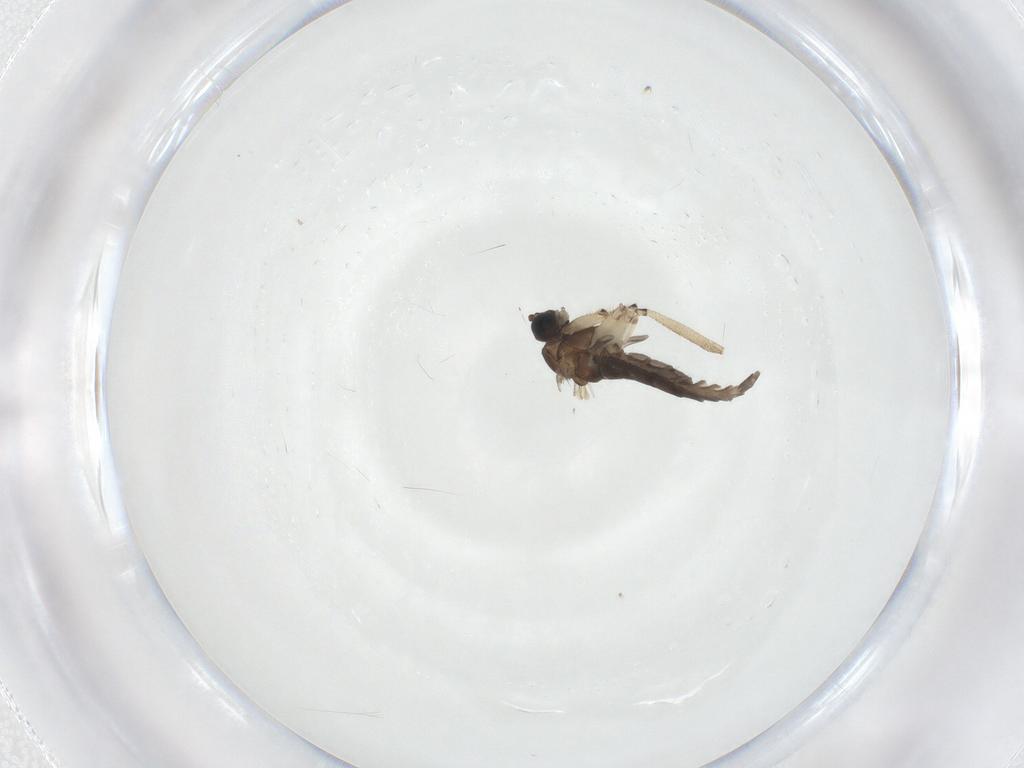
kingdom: Animalia
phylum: Arthropoda
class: Insecta
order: Diptera
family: Sciaridae
